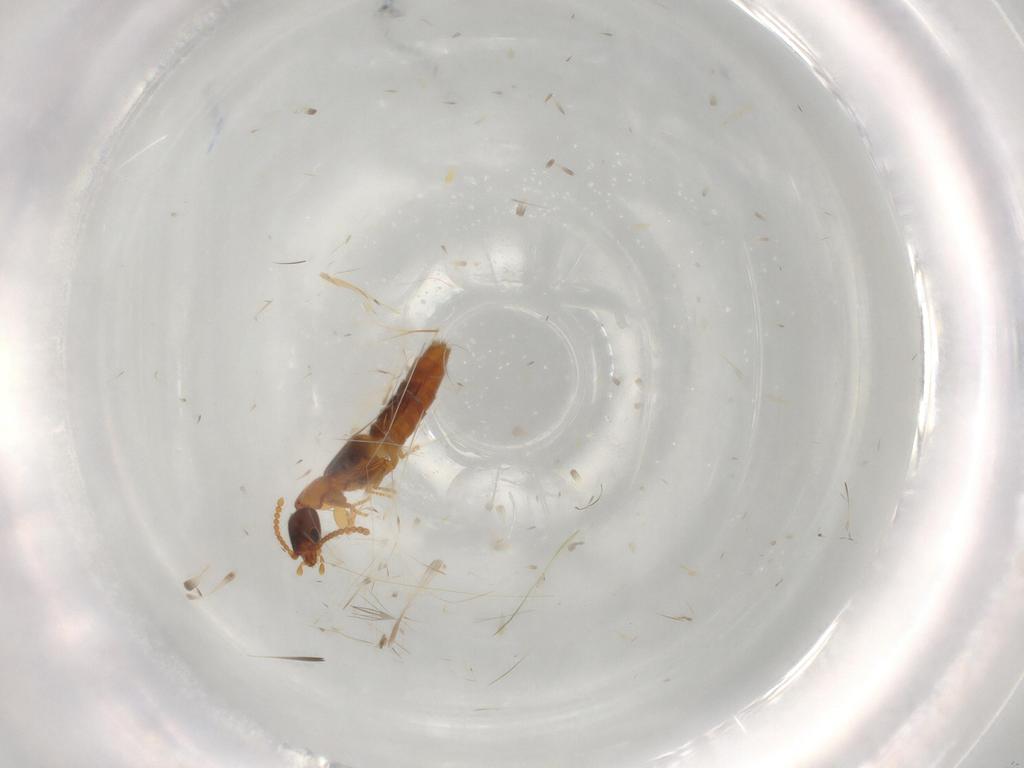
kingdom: Animalia
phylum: Arthropoda
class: Insecta
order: Coleoptera
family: Staphylinidae
